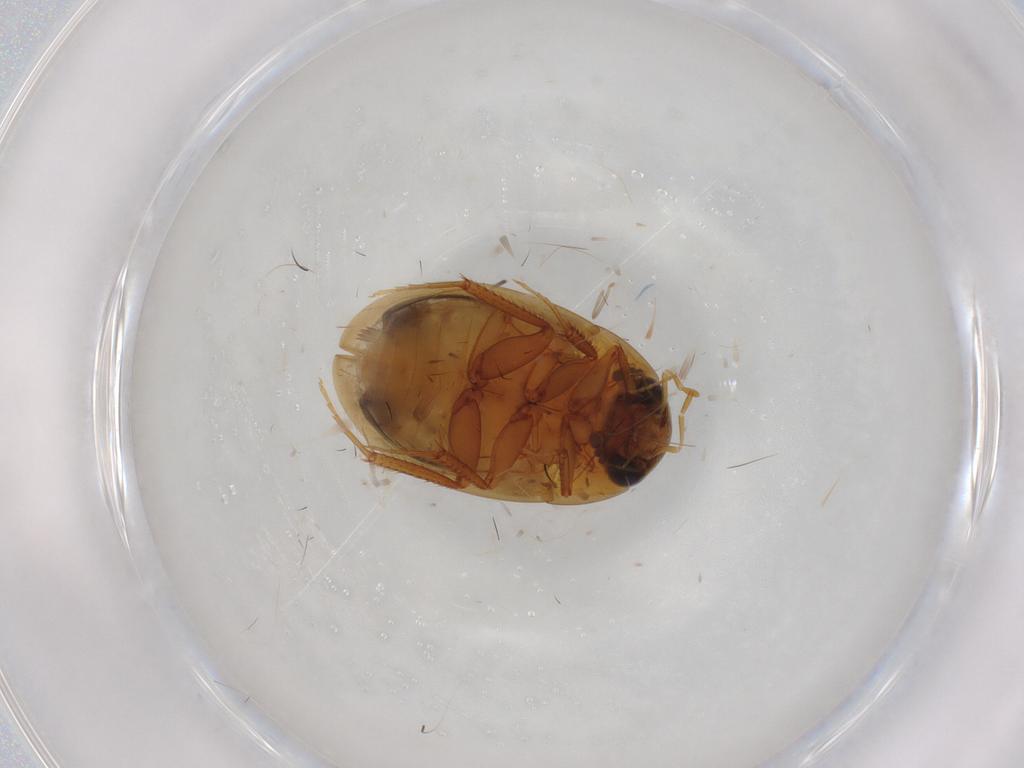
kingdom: Animalia
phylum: Arthropoda
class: Insecta
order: Coleoptera
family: Hydrophilidae
